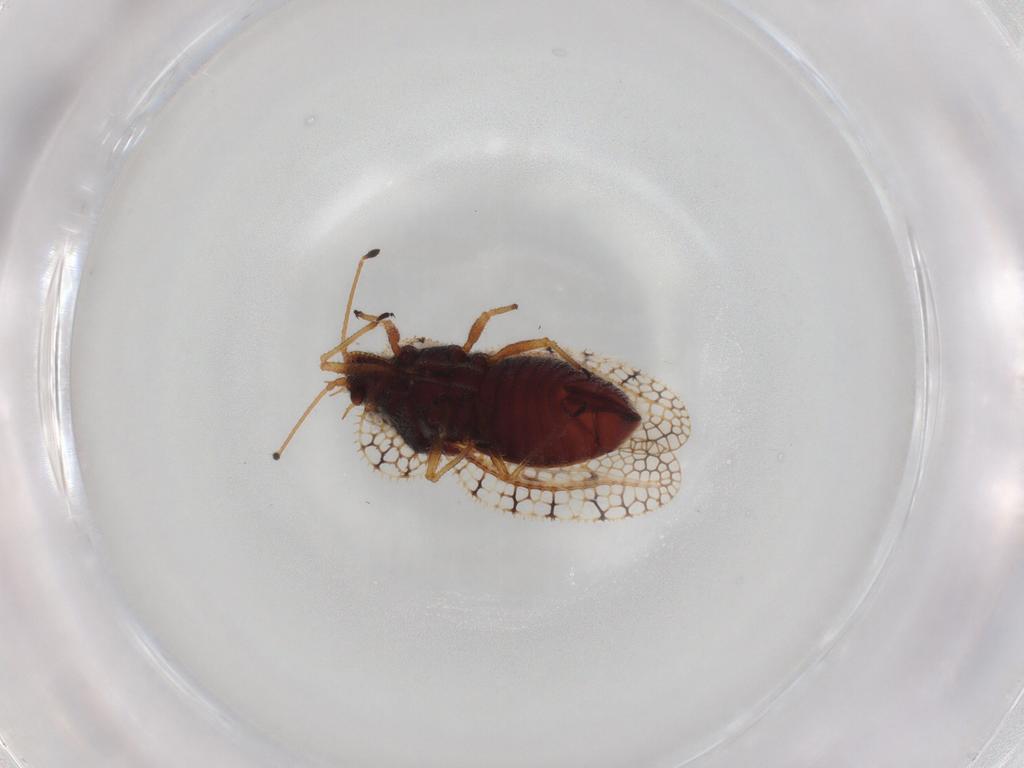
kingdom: Animalia
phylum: Arthropoda
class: Insecta
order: Hemiptera
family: Tingidae
